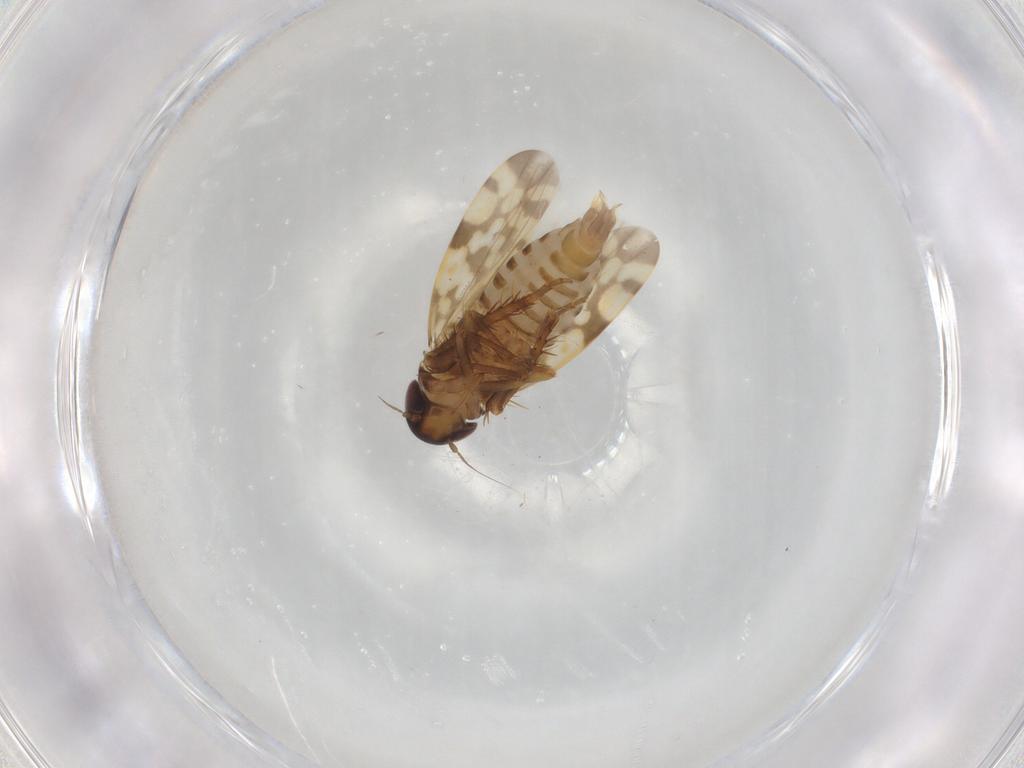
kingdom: Animalia
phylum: Arthropoda
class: Insecta
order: Hemiptera
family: Cicadellidae
